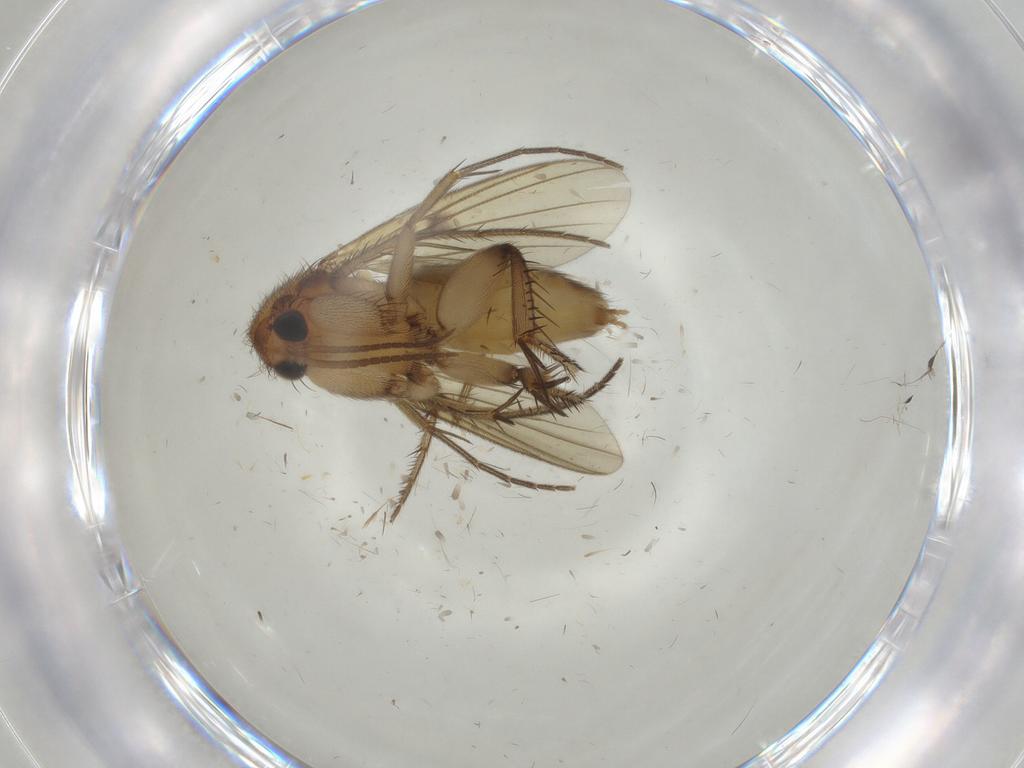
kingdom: Animalia
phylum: Arthropoda
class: Insecta
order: Diptera
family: Mycetophilidae
